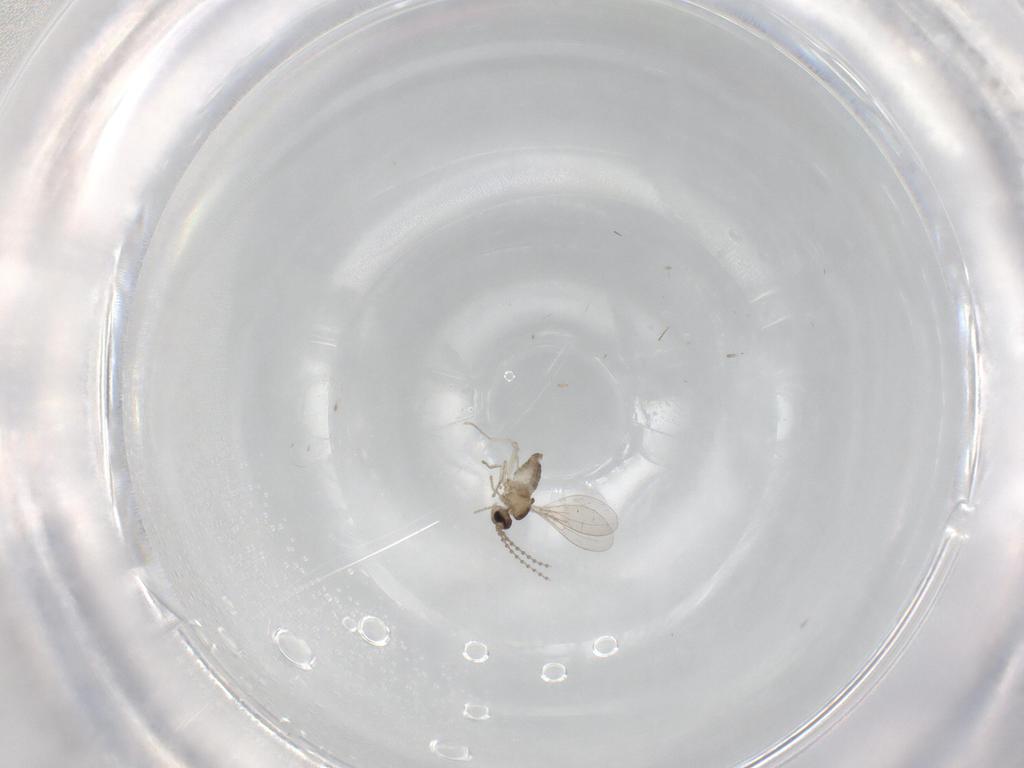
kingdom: Animalia
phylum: Arthropoda
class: Insecta
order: Diptera
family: Cecidomyiidae
